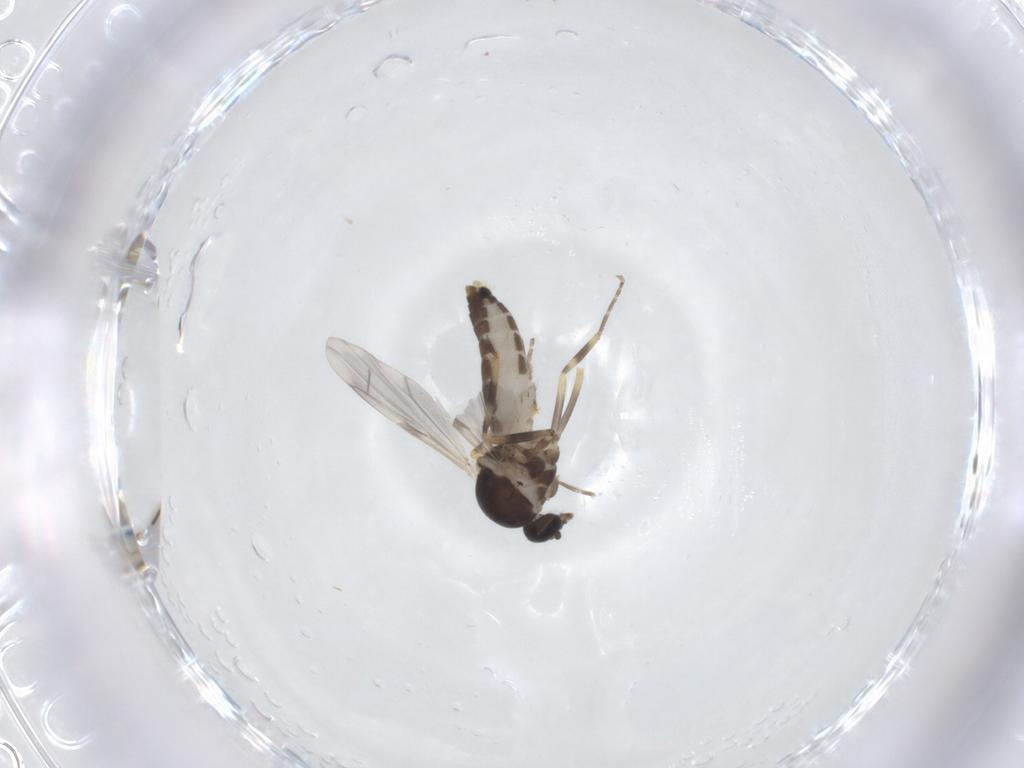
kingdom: Animalia
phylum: Arthropoda
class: Insecta
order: Diptera
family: Ceratopogonidae
